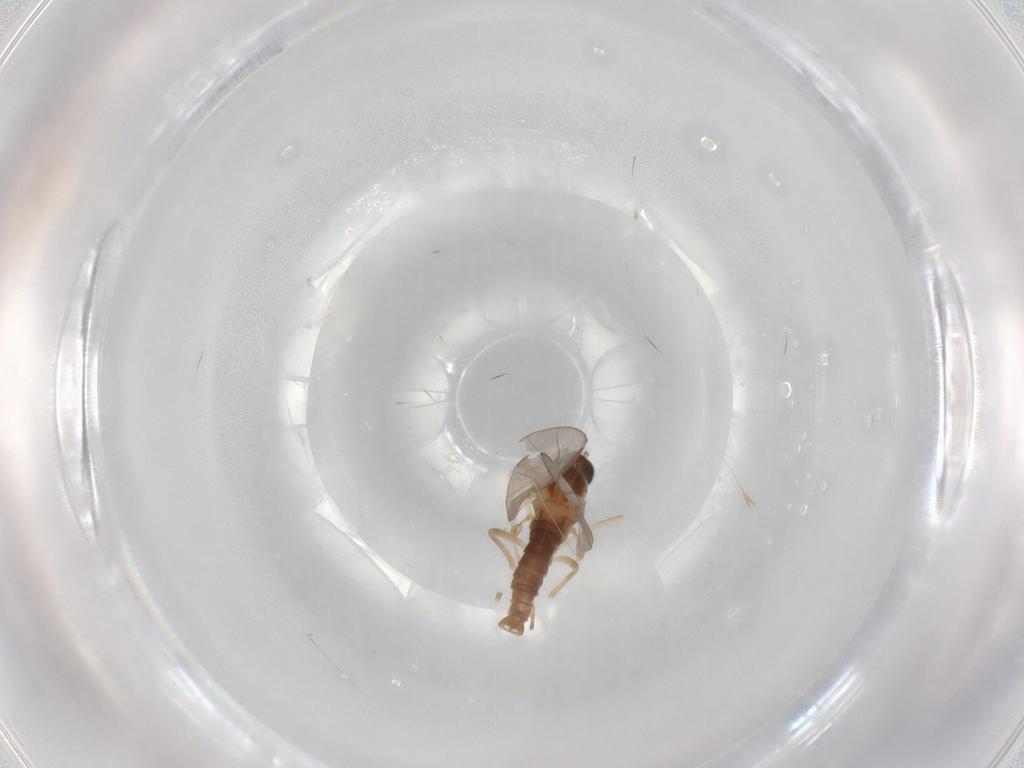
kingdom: Animalia
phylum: Arthropoda
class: Insecta
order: Diptera
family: Cecidomyiidae
